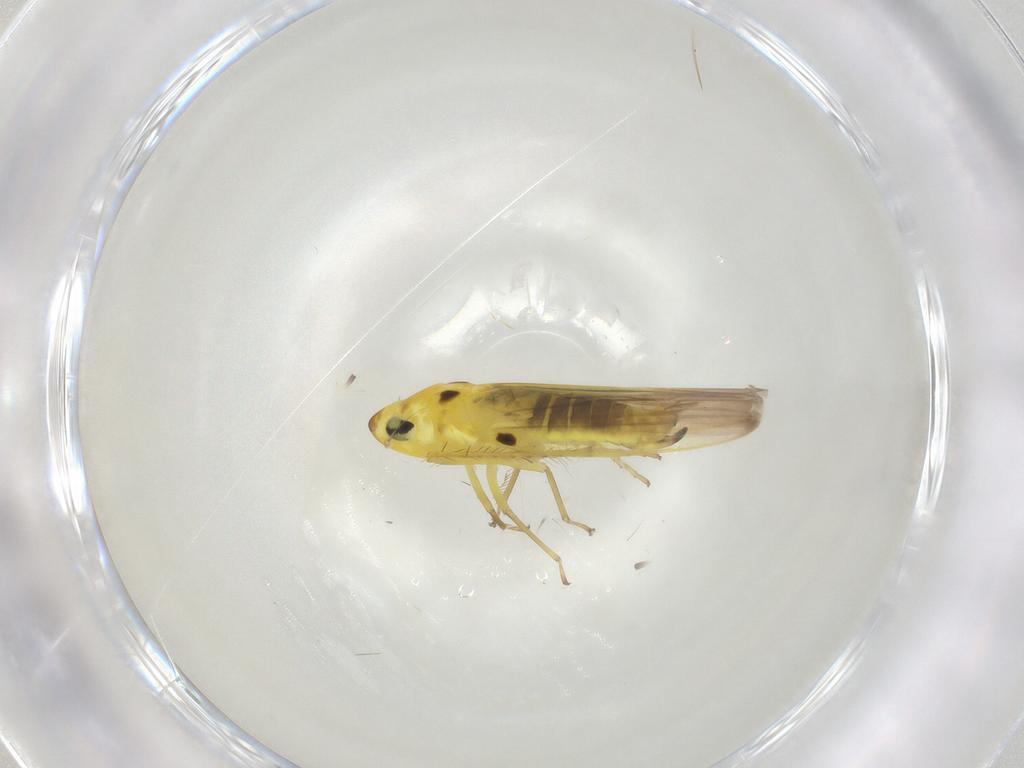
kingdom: Animalia
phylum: Arthropoda
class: Insecta
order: Hemiptera
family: Cicadellidae
